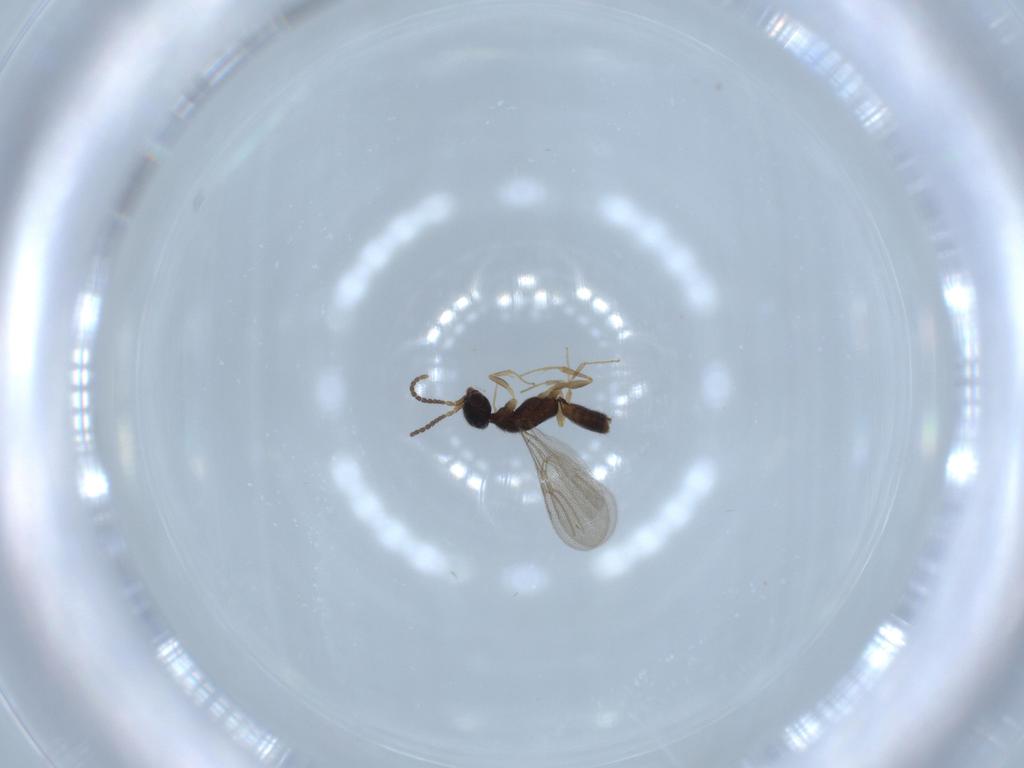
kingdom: Animalia
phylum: Arthropoda
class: Insecta
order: Hymenoptera
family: Bethylidae
